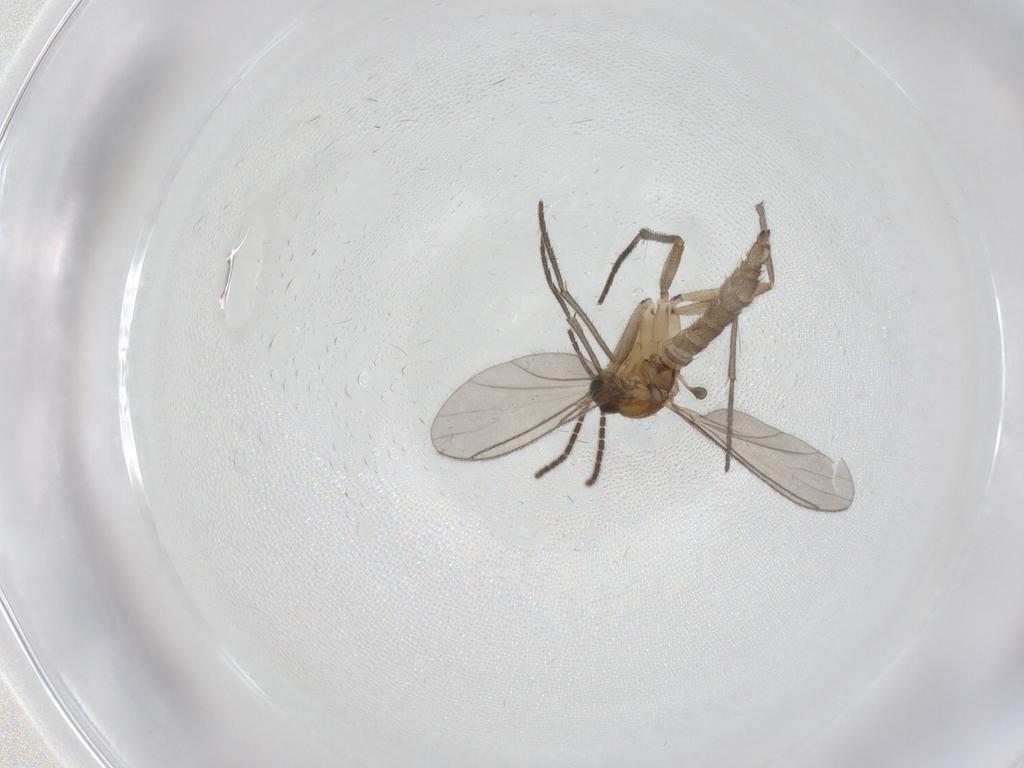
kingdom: Animalia
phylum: Arthropoda
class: Insecta
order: Diptera
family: Sciaridae
